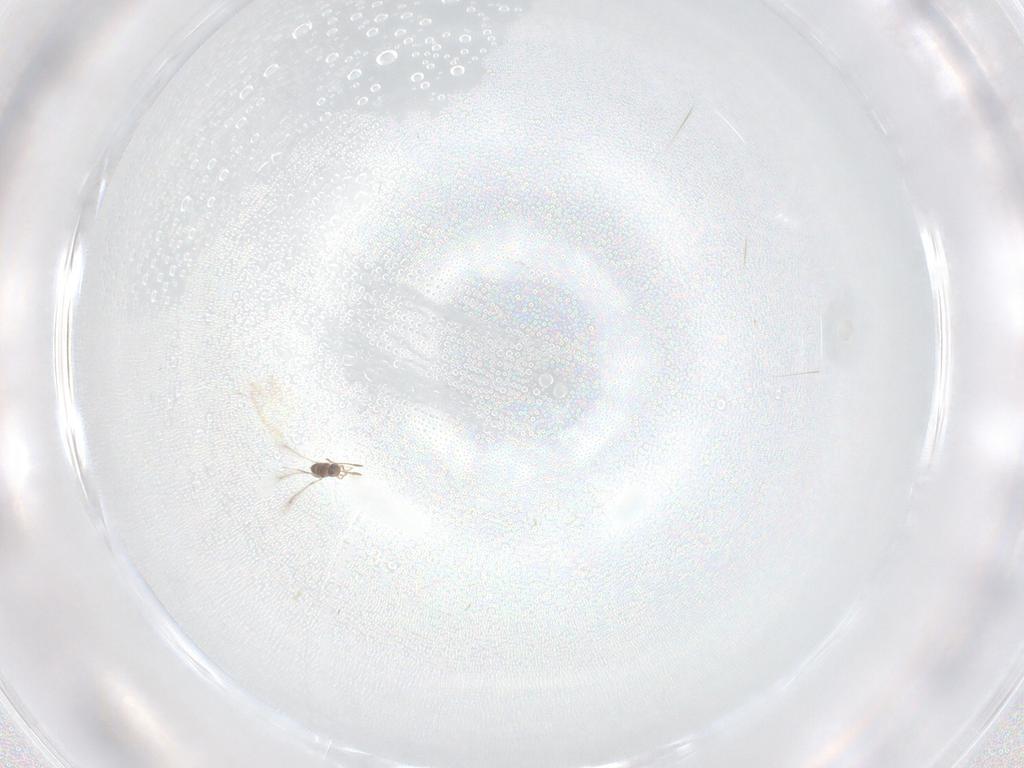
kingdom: Animalia
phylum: Arthropoda
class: Insecta
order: Hymenoptera
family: Mymaridae
